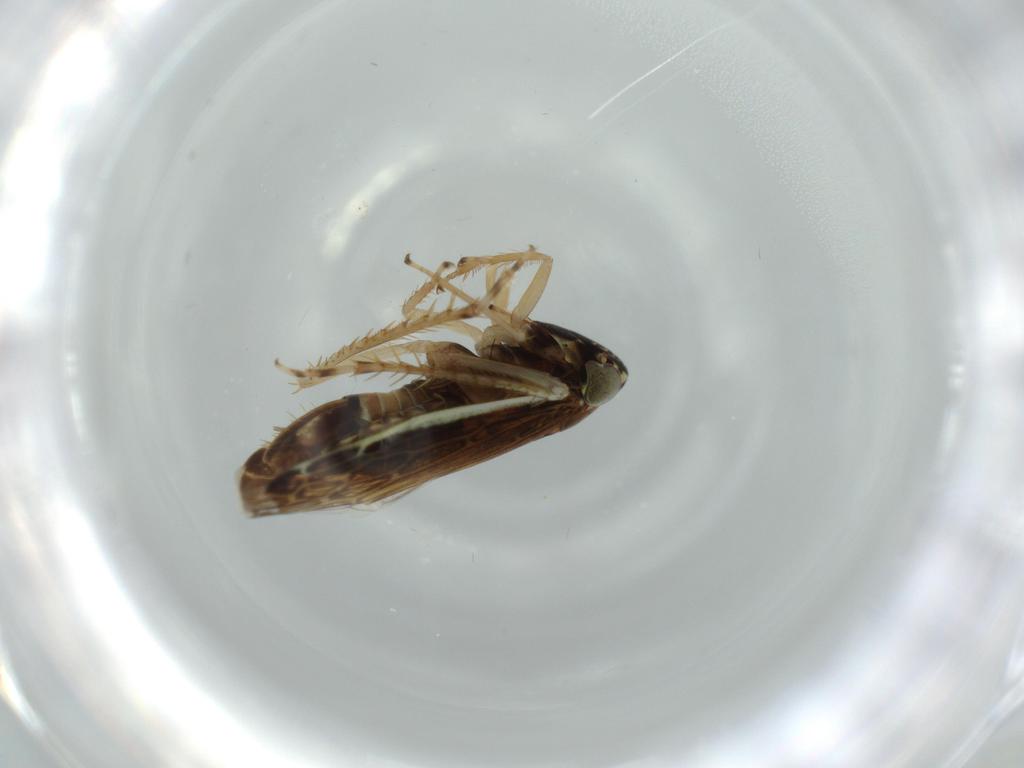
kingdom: Animalia
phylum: Arthropoda
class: Insecta
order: Hemiptera
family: Cicadellidae
